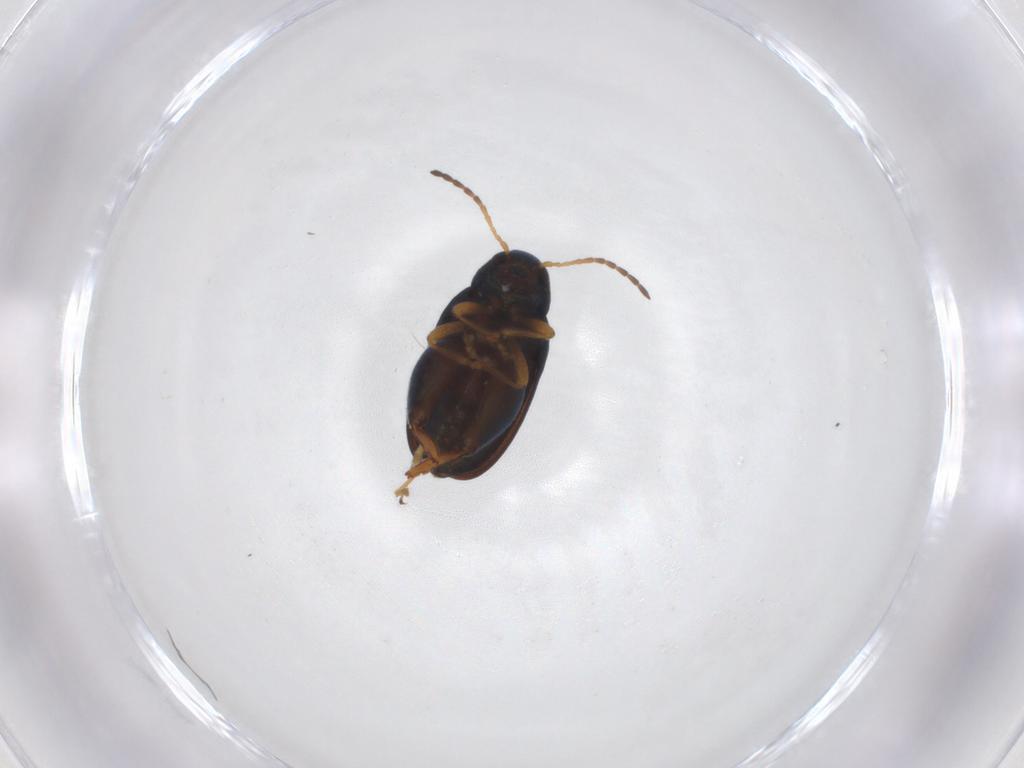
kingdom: Animalia
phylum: Arthropoda
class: Insecta
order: Coleoptera
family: Chrysomelidae
